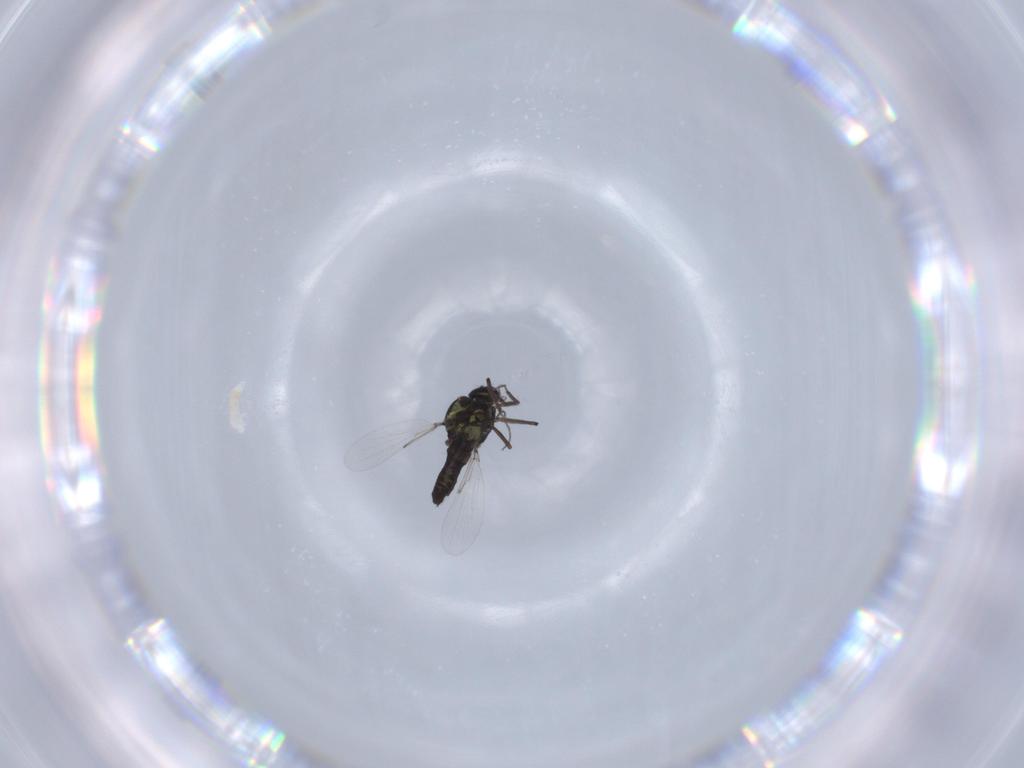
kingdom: Animalia
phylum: Arthropoda
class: Insecta
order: Diptera
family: Ceratopogonidae
